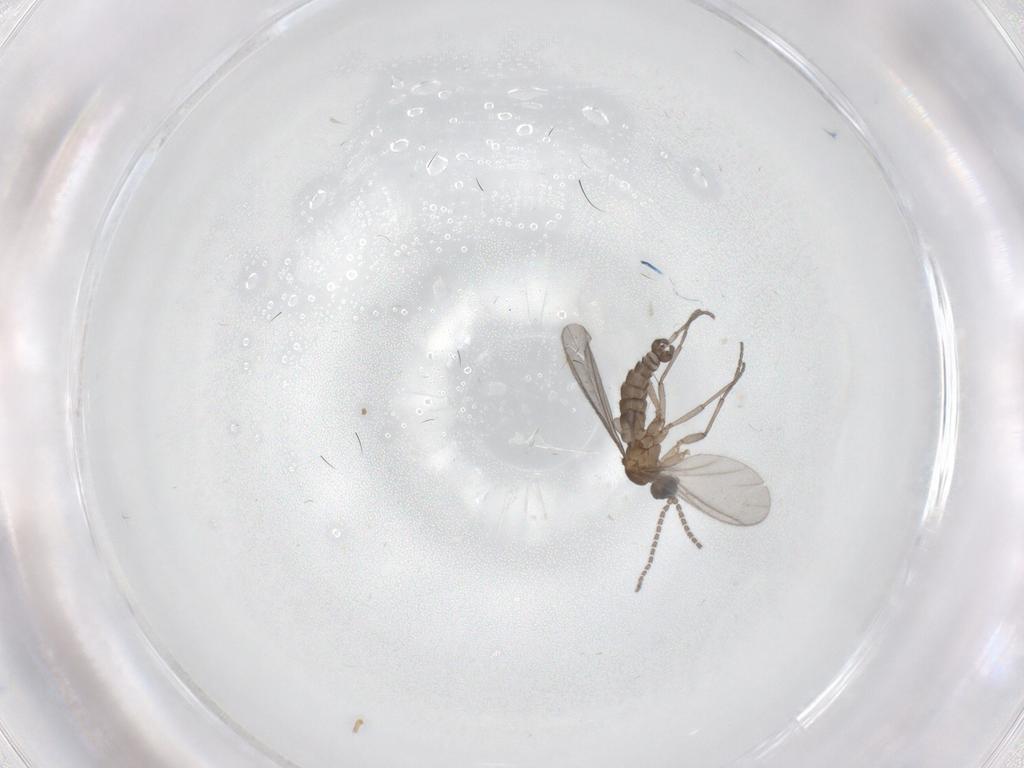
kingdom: Animalia
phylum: Arthropoda
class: Insecta
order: Diptera
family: Sciaridae
